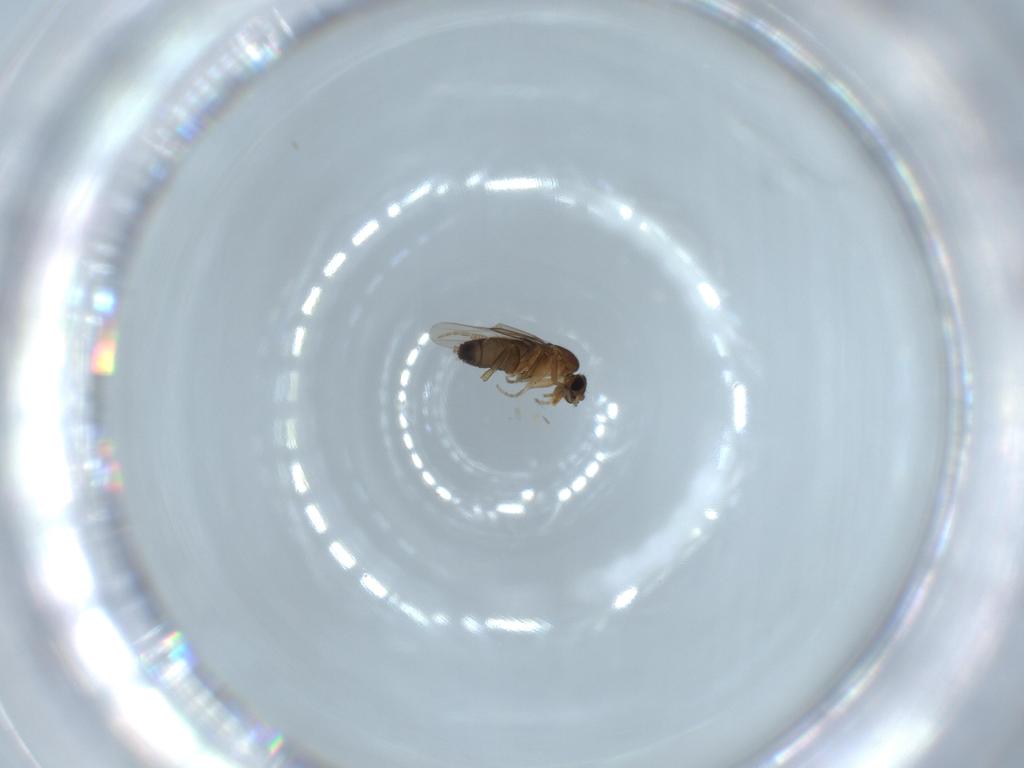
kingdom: Animalia
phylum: Arthropoda
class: Insecta
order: Diptera
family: Phoridae
